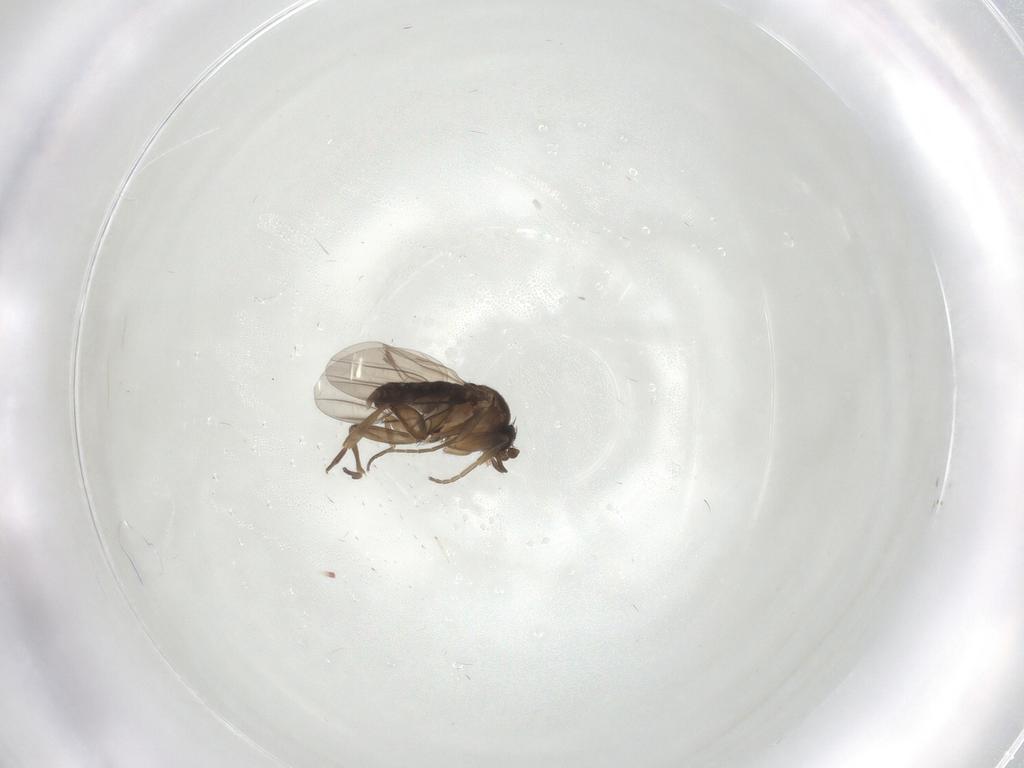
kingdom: Animalia
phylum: Arthropoda
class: Insecta
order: Diptera
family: Phoridae
